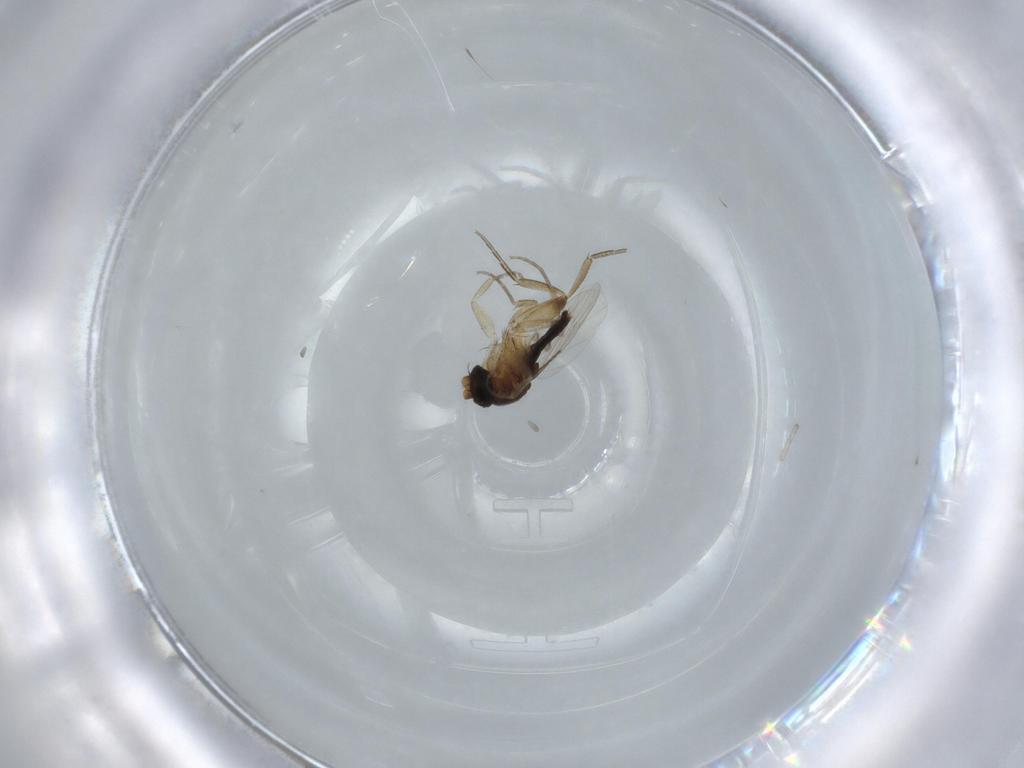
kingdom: Animalia
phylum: Arthropoda
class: Insecta
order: Diptera
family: Phoridae
